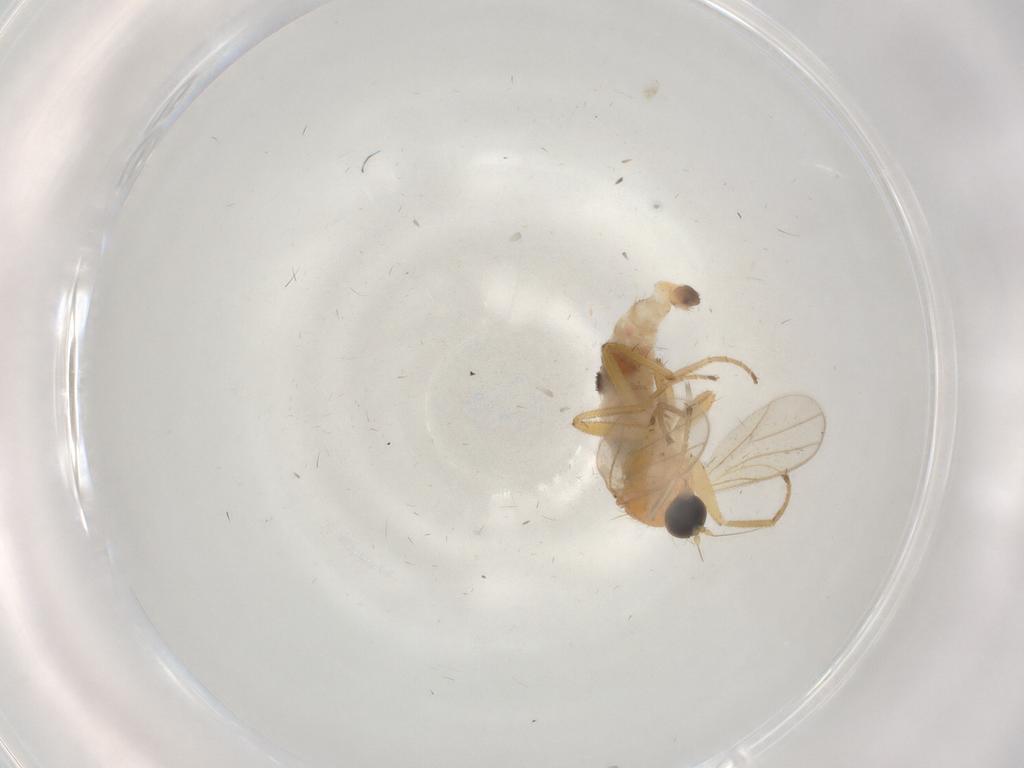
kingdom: Animalia
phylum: Arthropoda
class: Insecta
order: Diptera
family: Hybotidae
